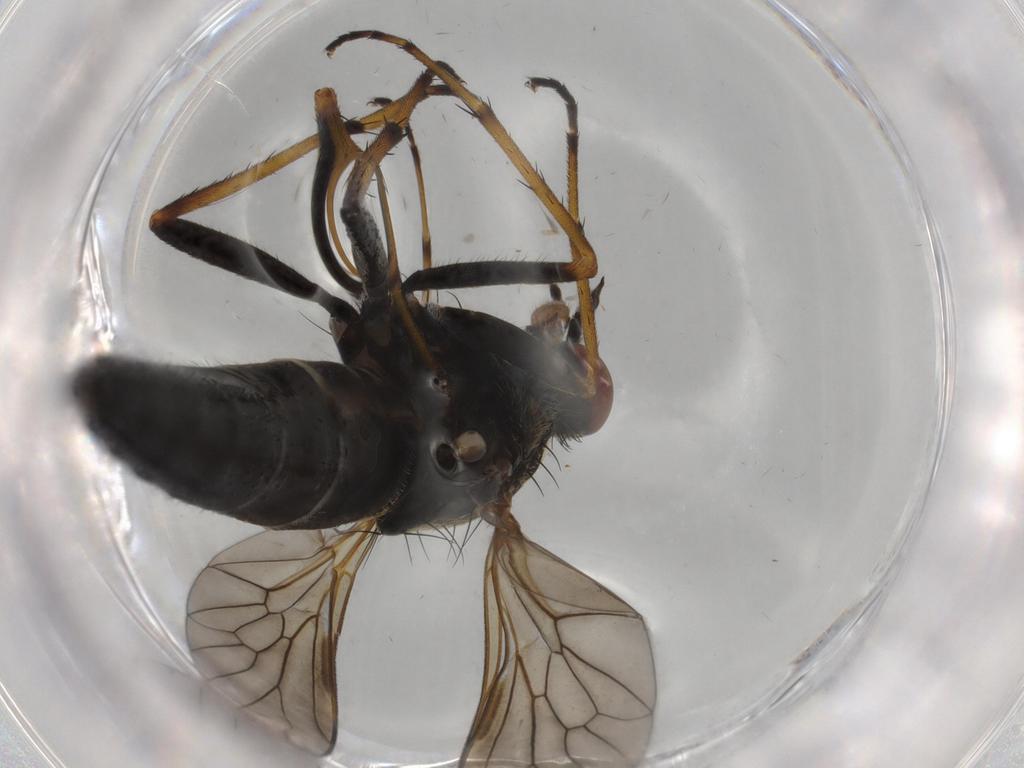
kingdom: Animalia
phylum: Arthropoda
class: Insecta
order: Diptera
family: Therevidae
